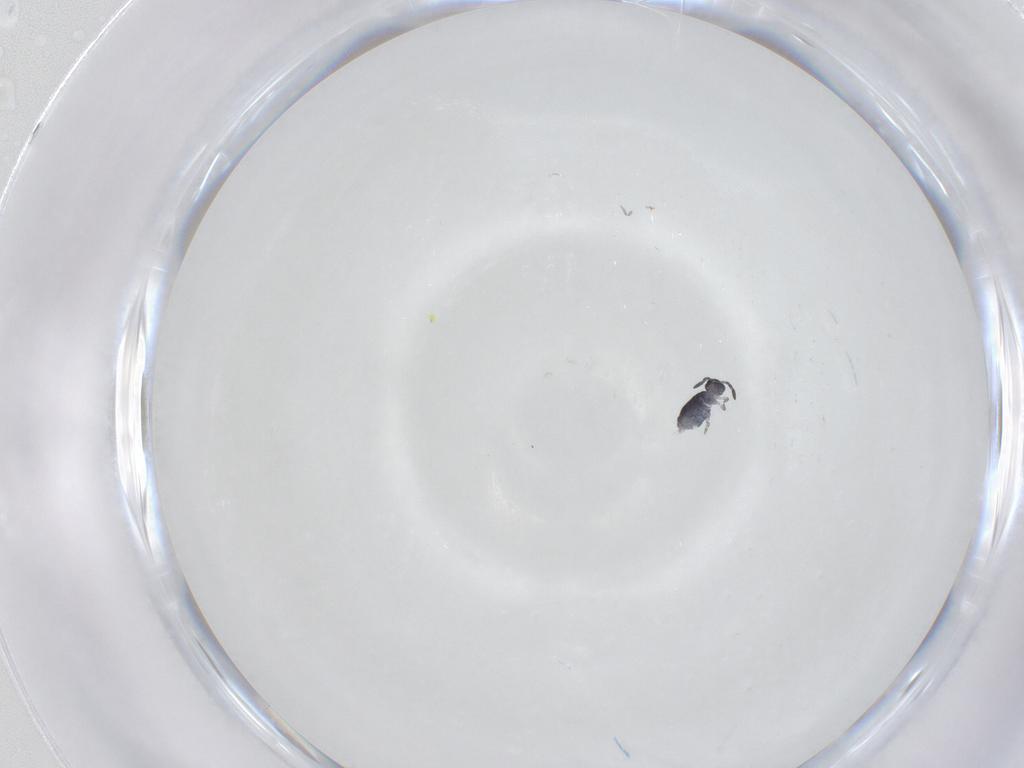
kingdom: Animalia
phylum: Arthropoda
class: Collembola
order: Symphypleona
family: Katiannidae
